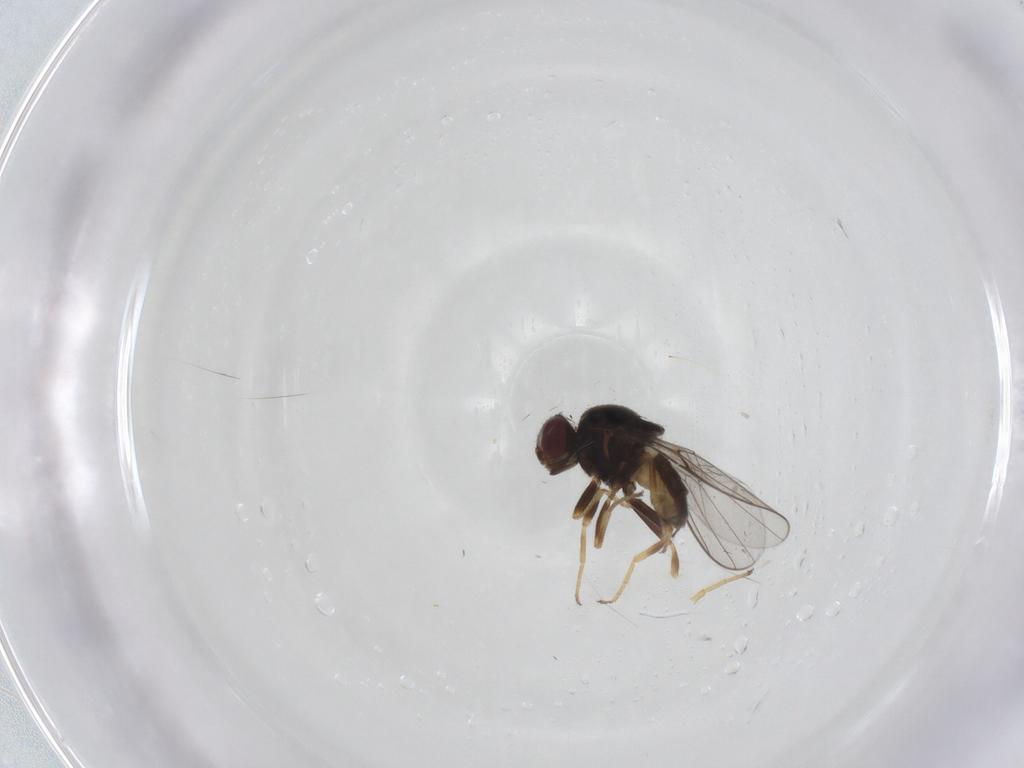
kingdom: Animalia
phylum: Arthropoda
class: Insecta
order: Diptera
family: Chloropidae
